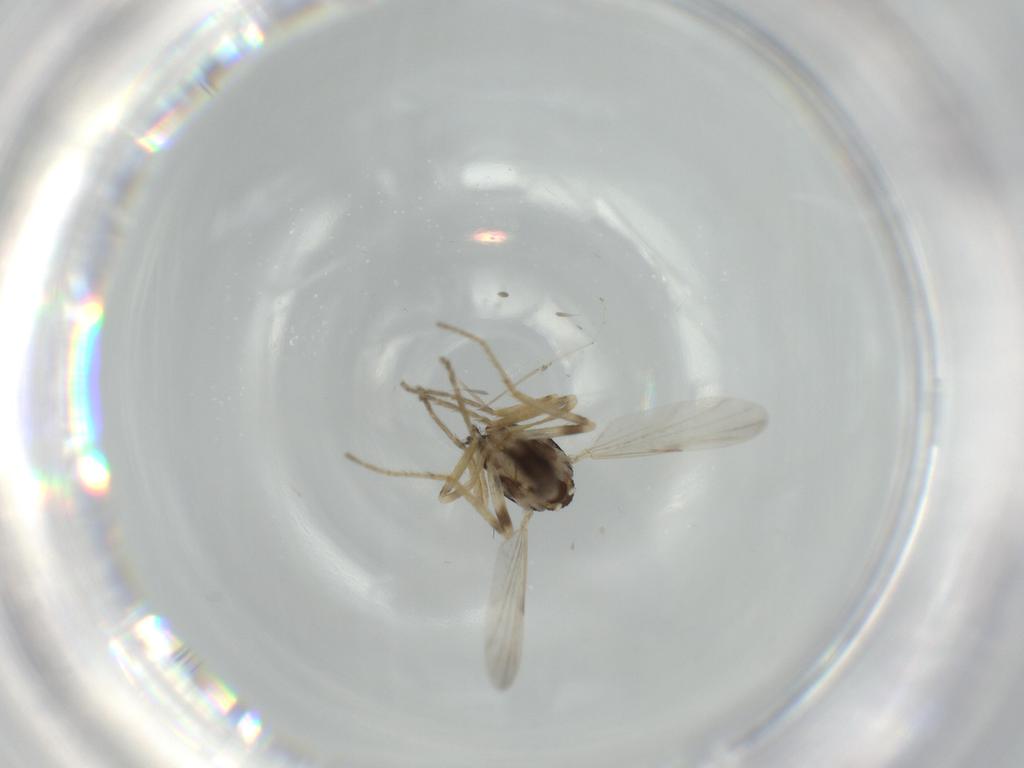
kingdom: Animalia
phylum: Arthropoda
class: Insecta
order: Diptera
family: Ceratopogonidae
